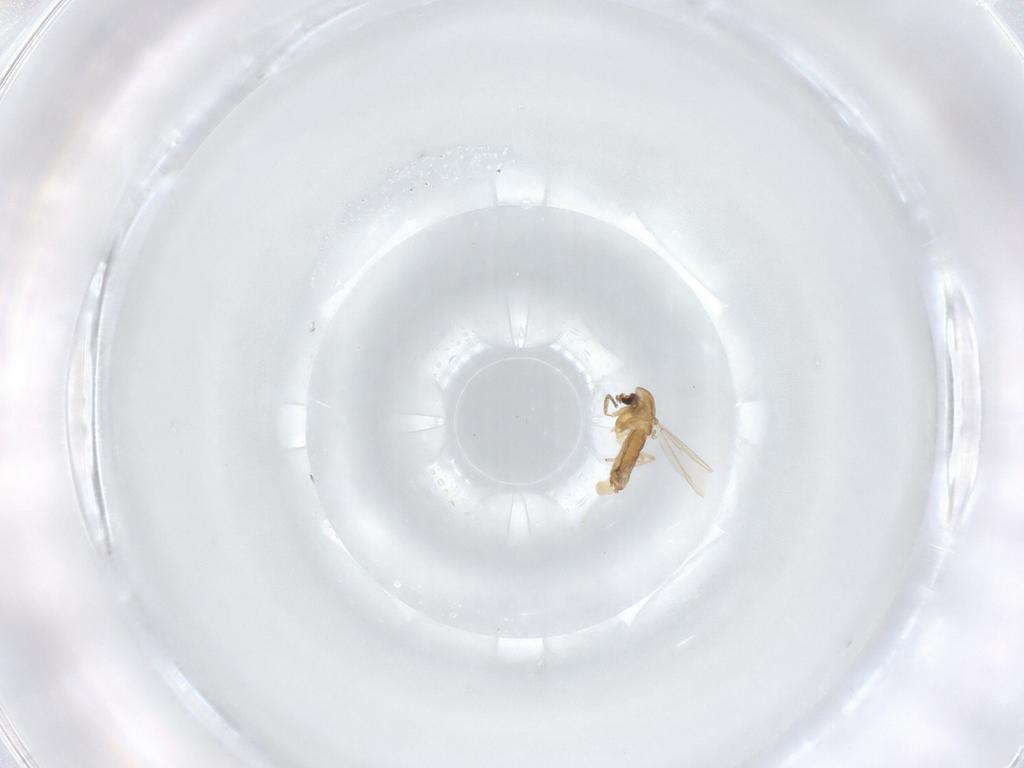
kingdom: Animalia
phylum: Arthropoda
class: Insecta
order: Diptera
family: Chironomidae
